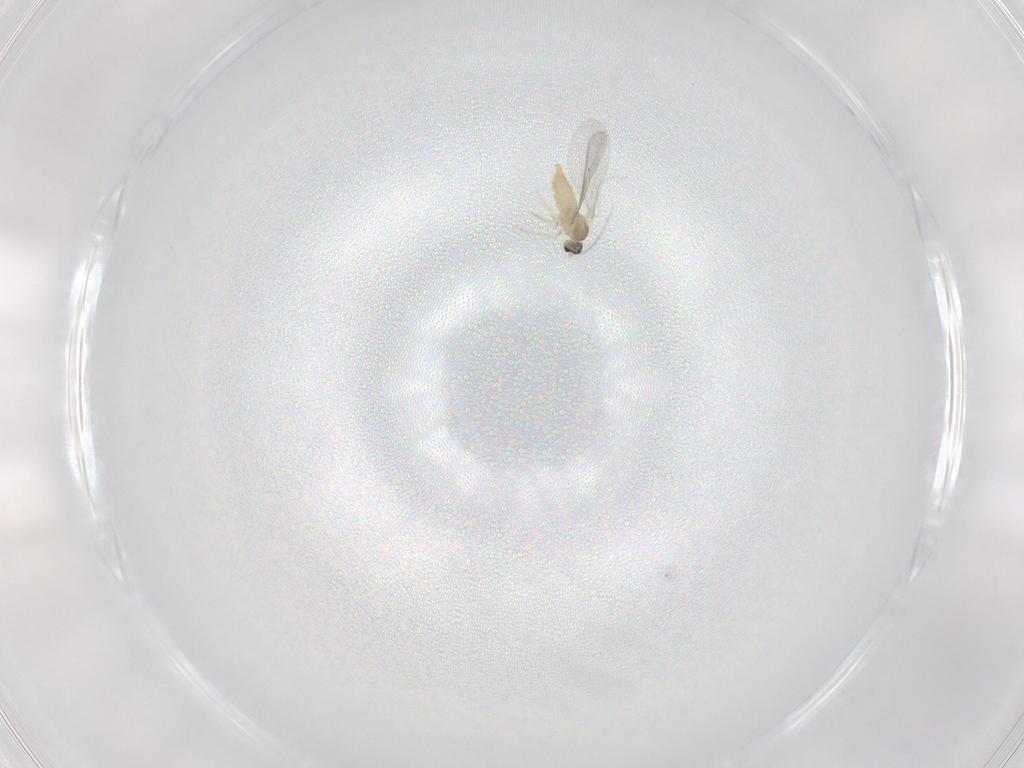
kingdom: Animalia
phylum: Arthropoda
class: Insecta
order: Diptera
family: Cecidomyiidae
